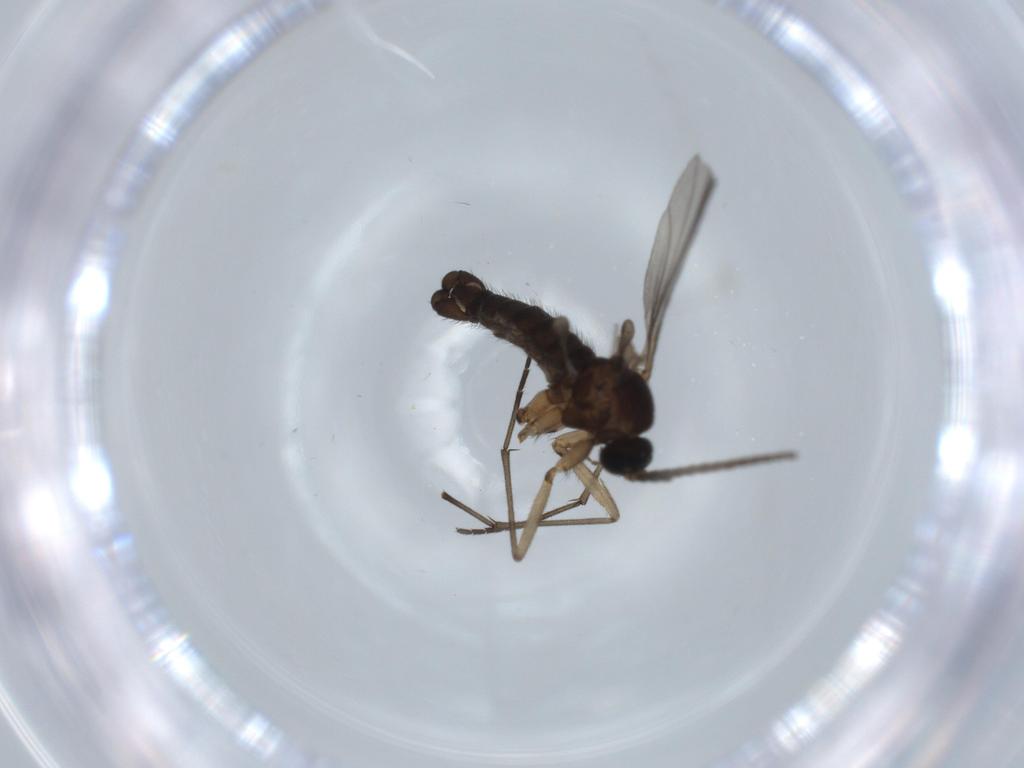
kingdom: Animalia
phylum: Arthropoda
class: Insecta
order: Diptera
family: Sciaridae
